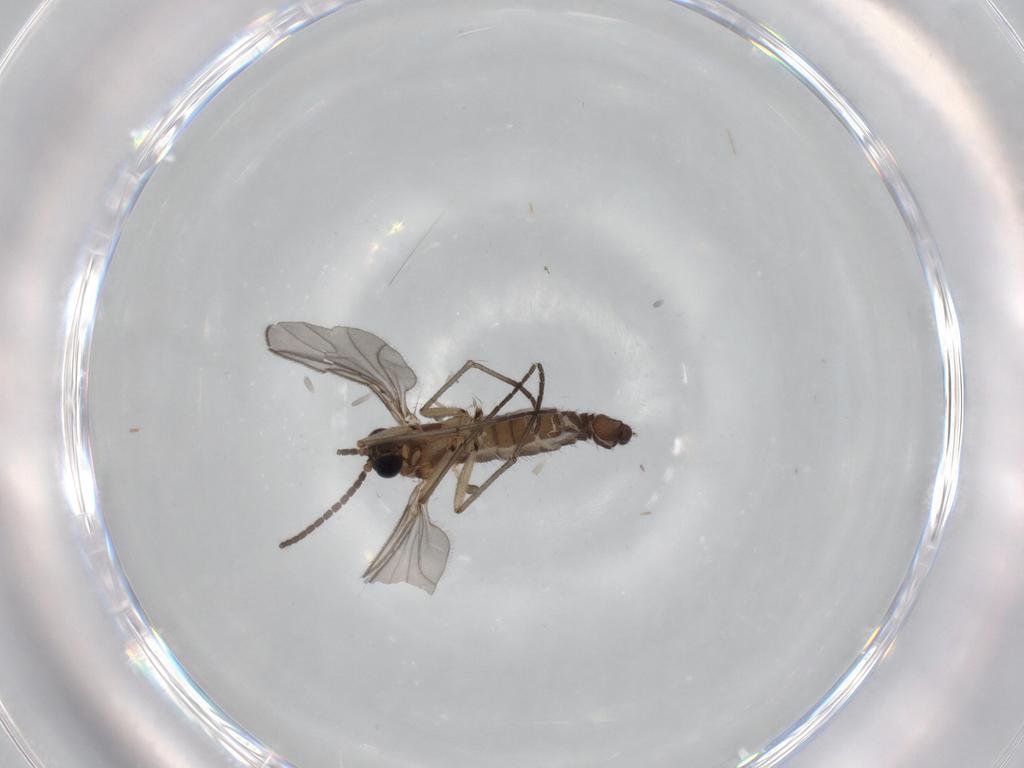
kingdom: Animalia
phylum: Arthropoda
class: Insecta
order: Diptera
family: Sciaridae
